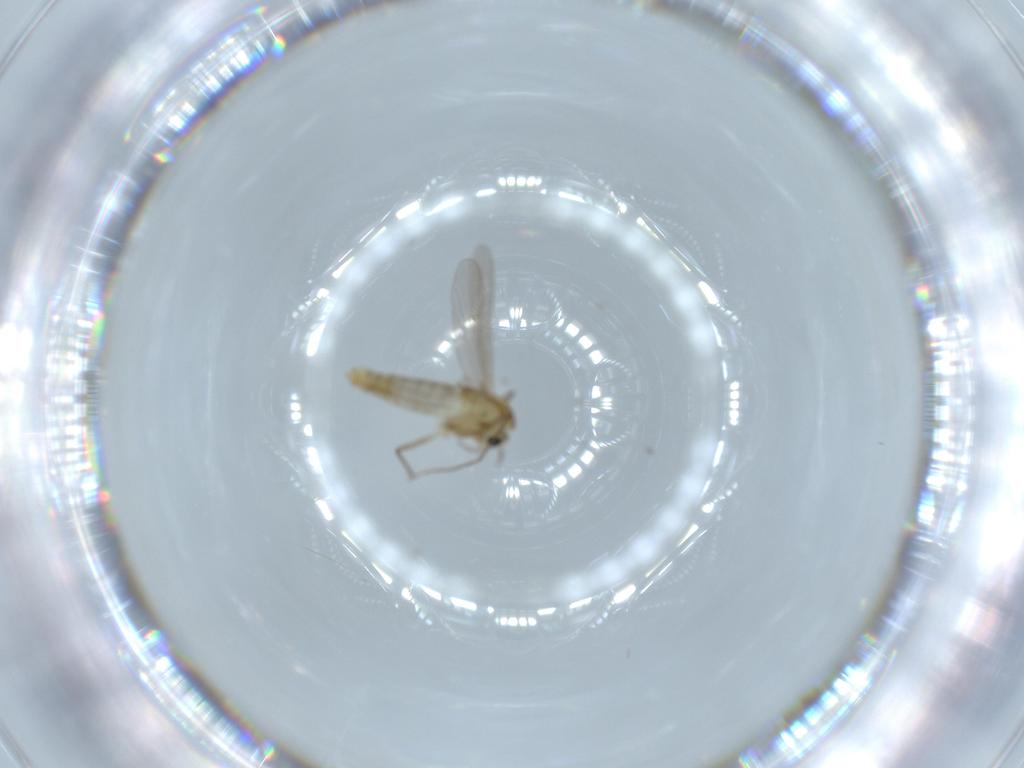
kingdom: Animalia
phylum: Arthropoda
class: Insecta
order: Diptera
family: Chironomidae
